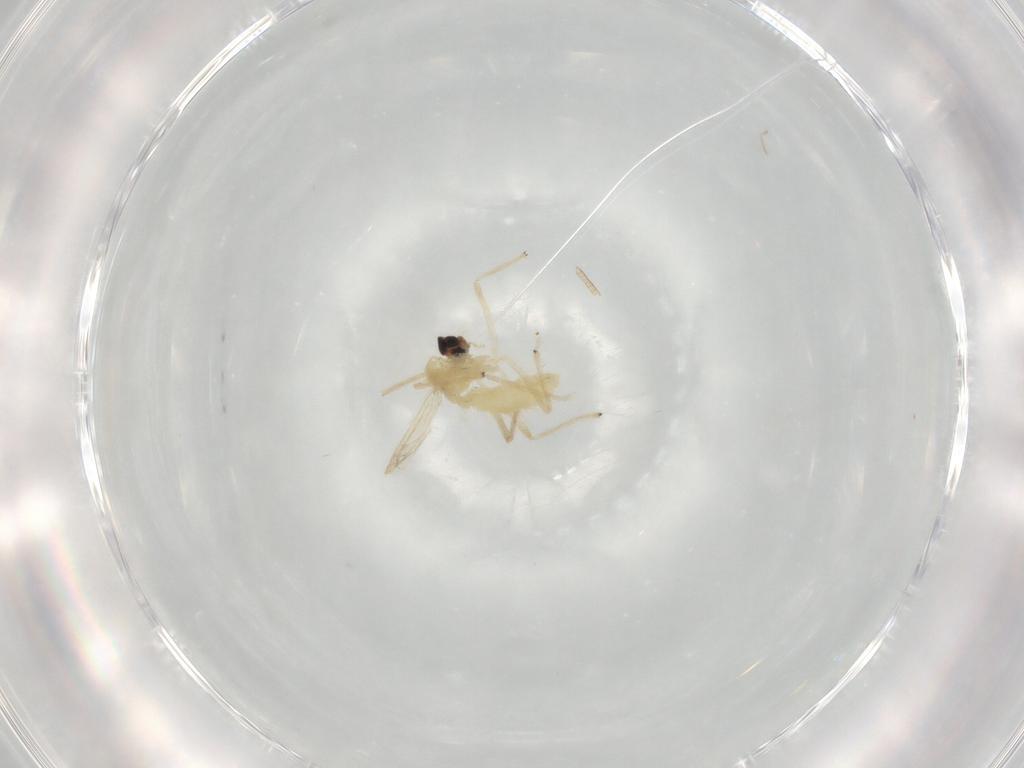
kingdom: Animalia
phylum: Arthropoda
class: Insecta
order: Diptera
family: Chironomidae
